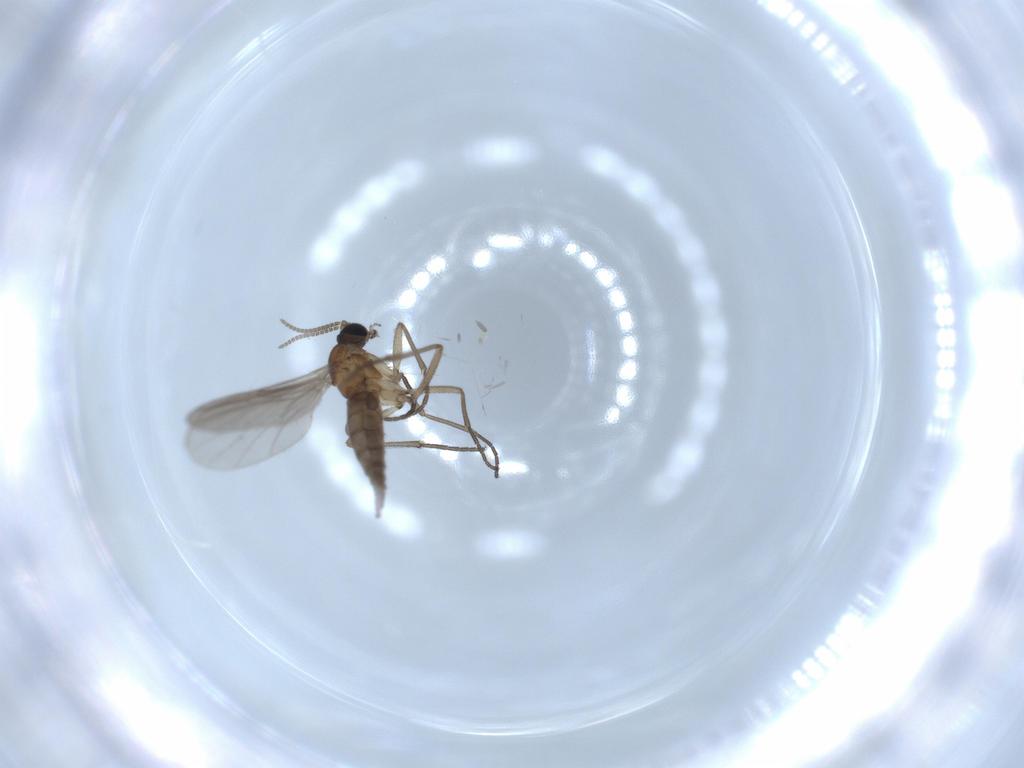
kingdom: Animalia
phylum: Arthropoda
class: Insecta
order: Diptera
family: Sciaridae
